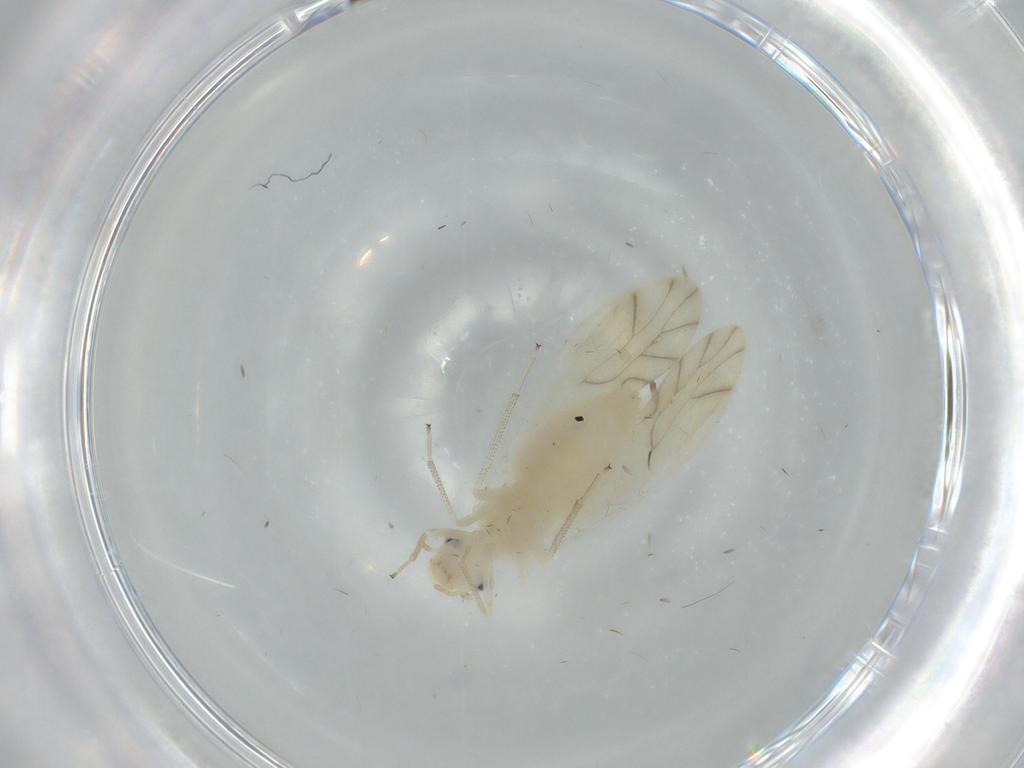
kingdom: Animalia
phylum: Arthropoda
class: Insecta
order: Psocodea
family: Caeciliusidae
